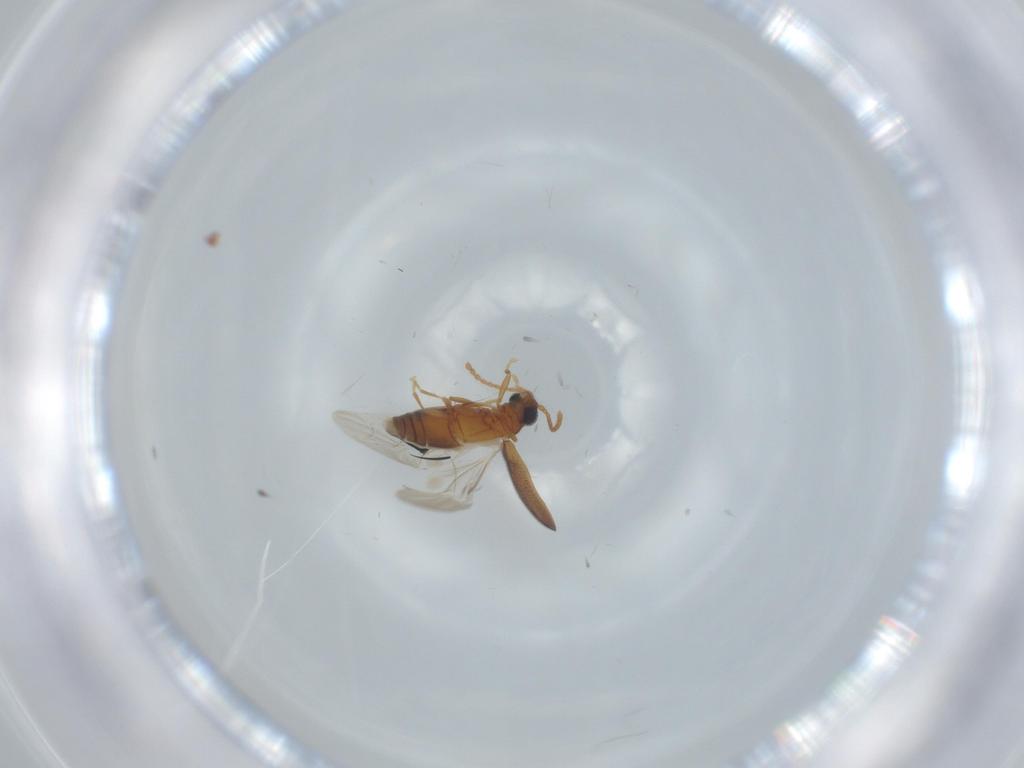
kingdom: Animalia
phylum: Arthropoda
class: Insecta
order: Coleoptera
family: Aderidae
